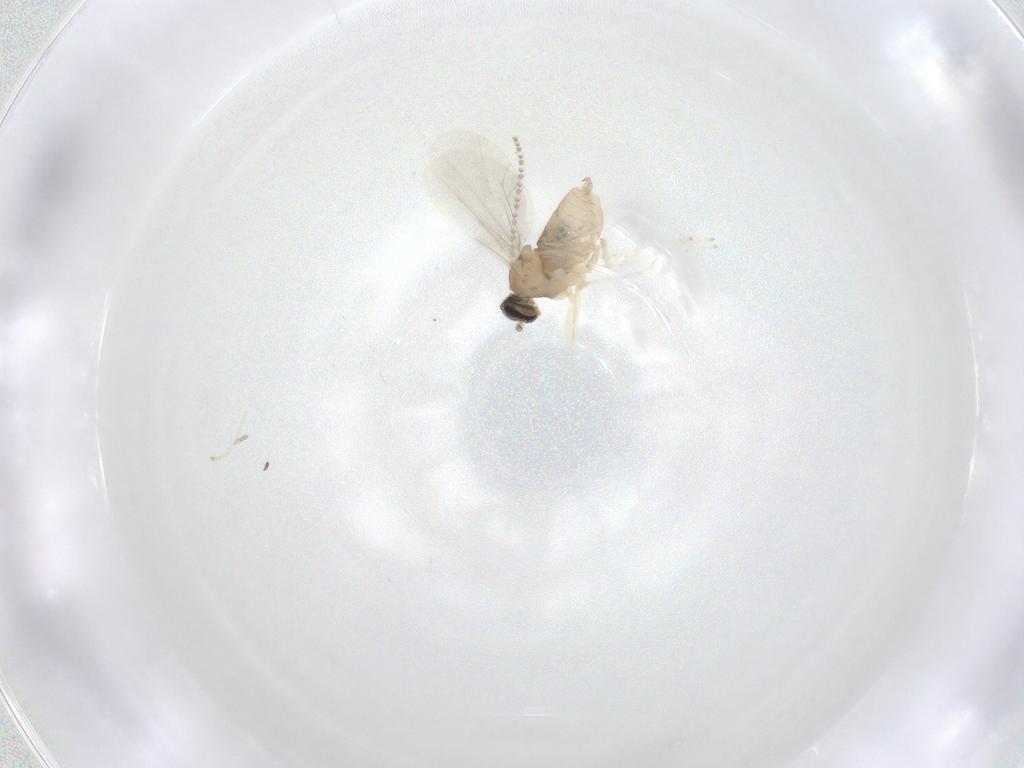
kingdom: Animalia
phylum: Arthropoda
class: Insecta
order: Diptera
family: Cecidomyiidae
